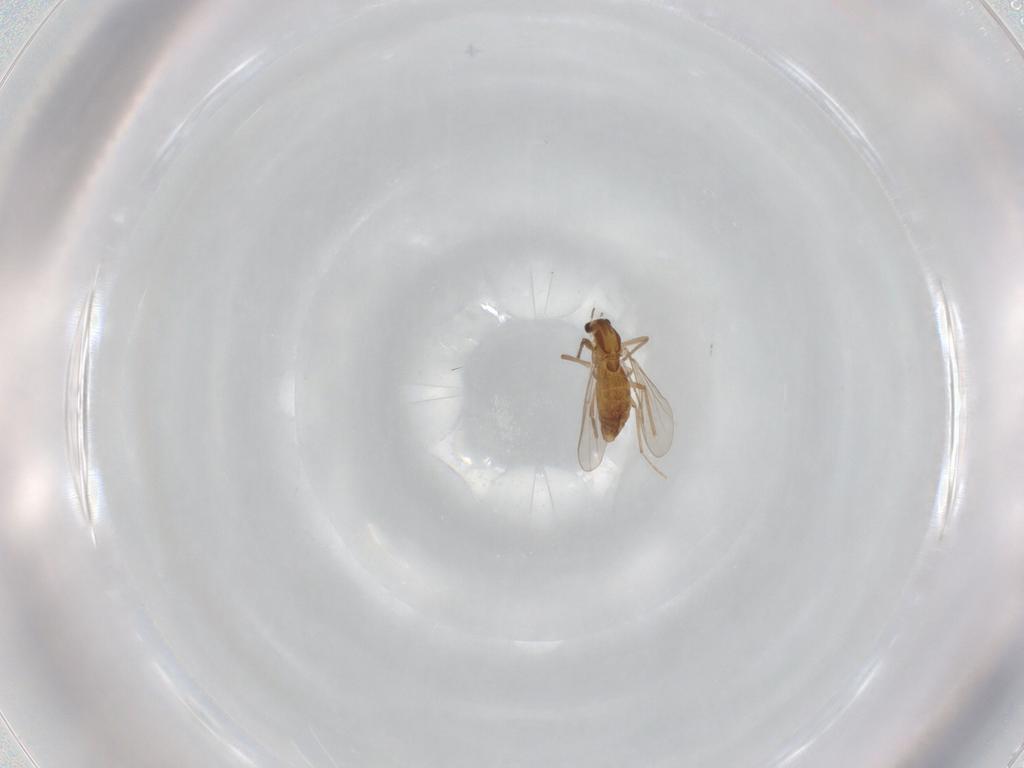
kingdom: Animalia
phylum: Arthropoda
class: Insecta
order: Diptera
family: Chironomidae
